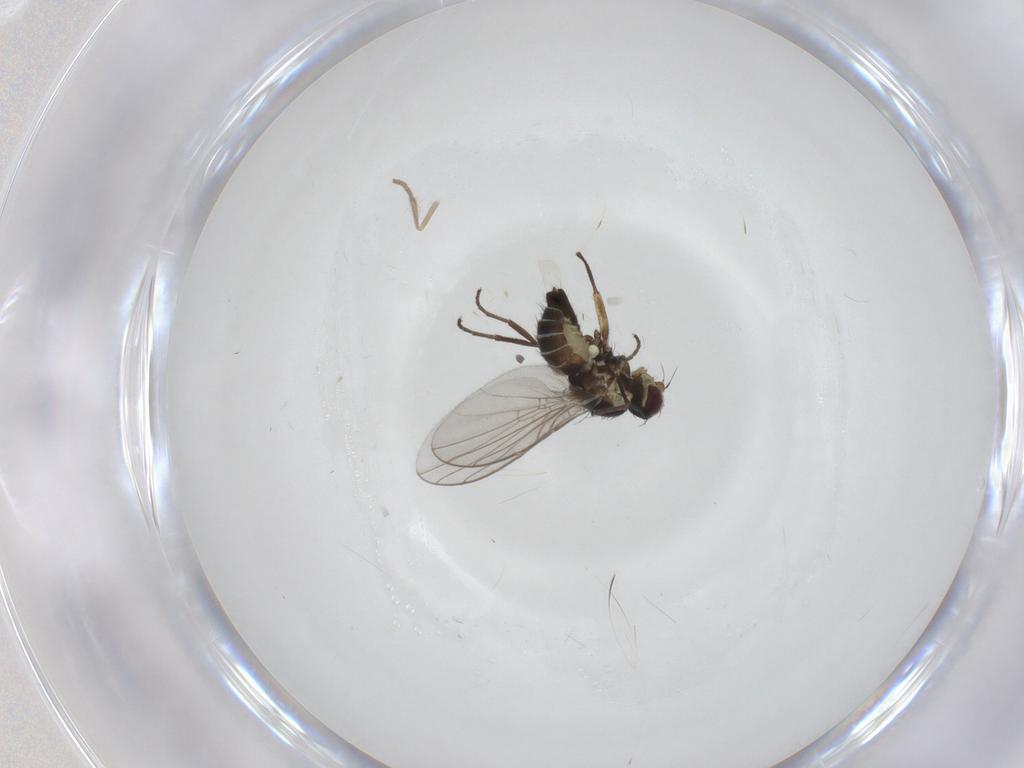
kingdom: Animalia
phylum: Arthropoda
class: Insecta
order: Diptera
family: Agromyzidae
